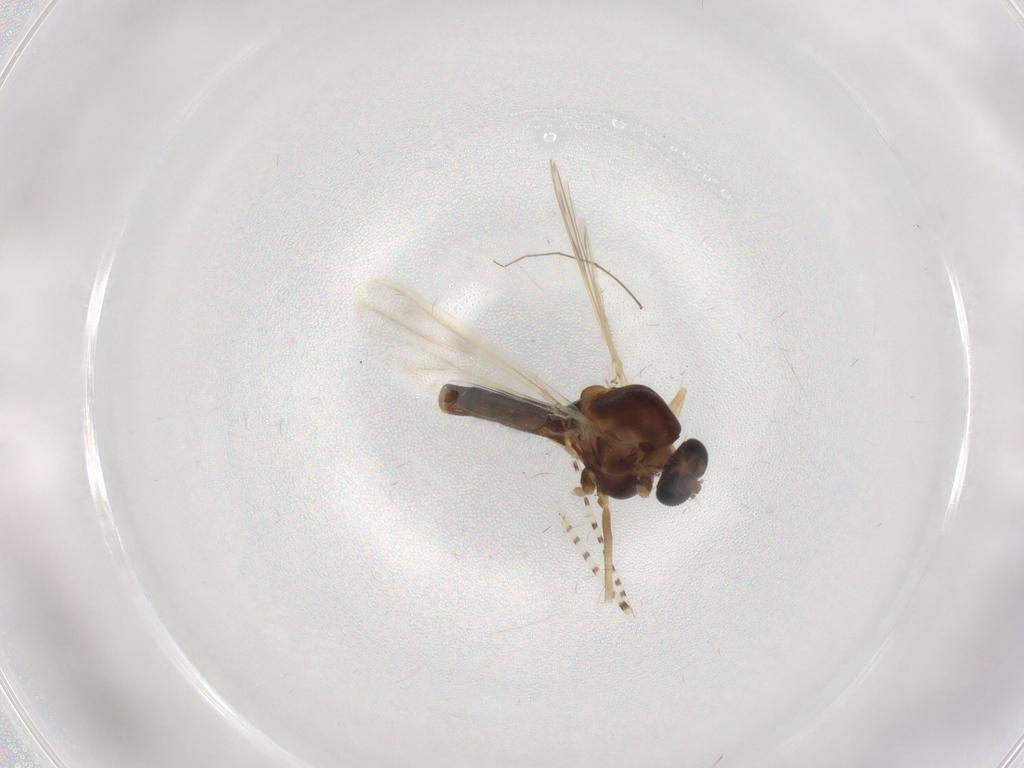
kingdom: Animalia
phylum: Arthropoda
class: Insecta
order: Diptera
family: Cecidomyiidae
